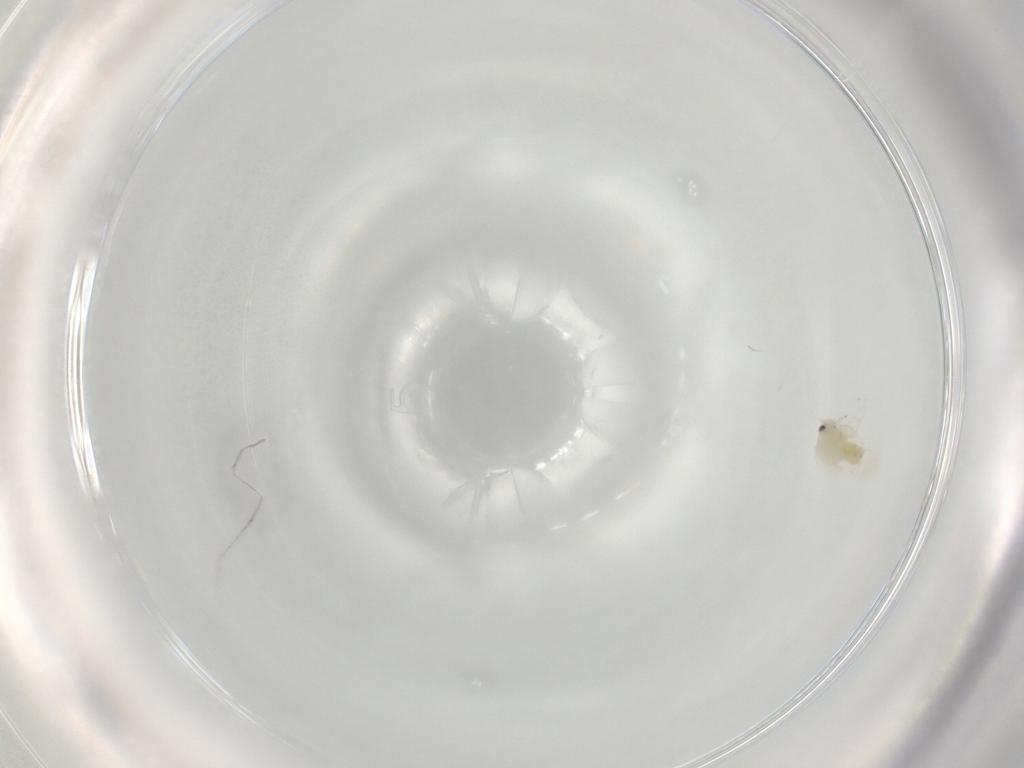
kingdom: Animalia
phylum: Arthropoda
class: Insecta
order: Hemiptera
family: Aleyrodidae
